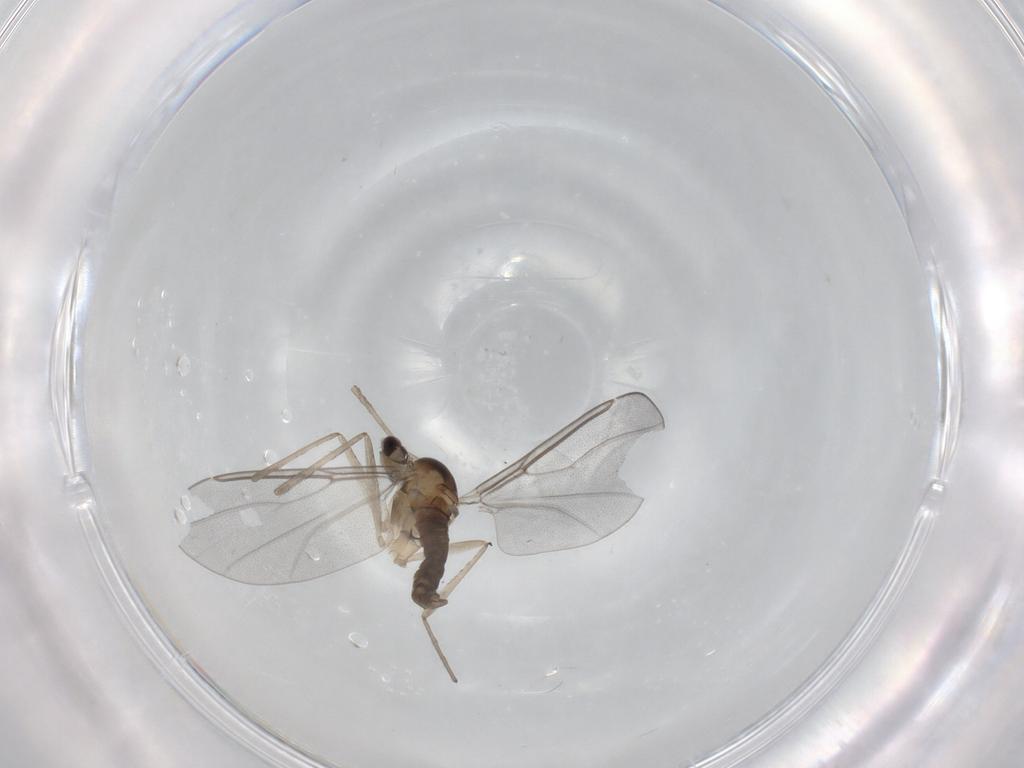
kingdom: Animalia
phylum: Arthropoda
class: Insecta
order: Diptera
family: Cecidomyiidae
